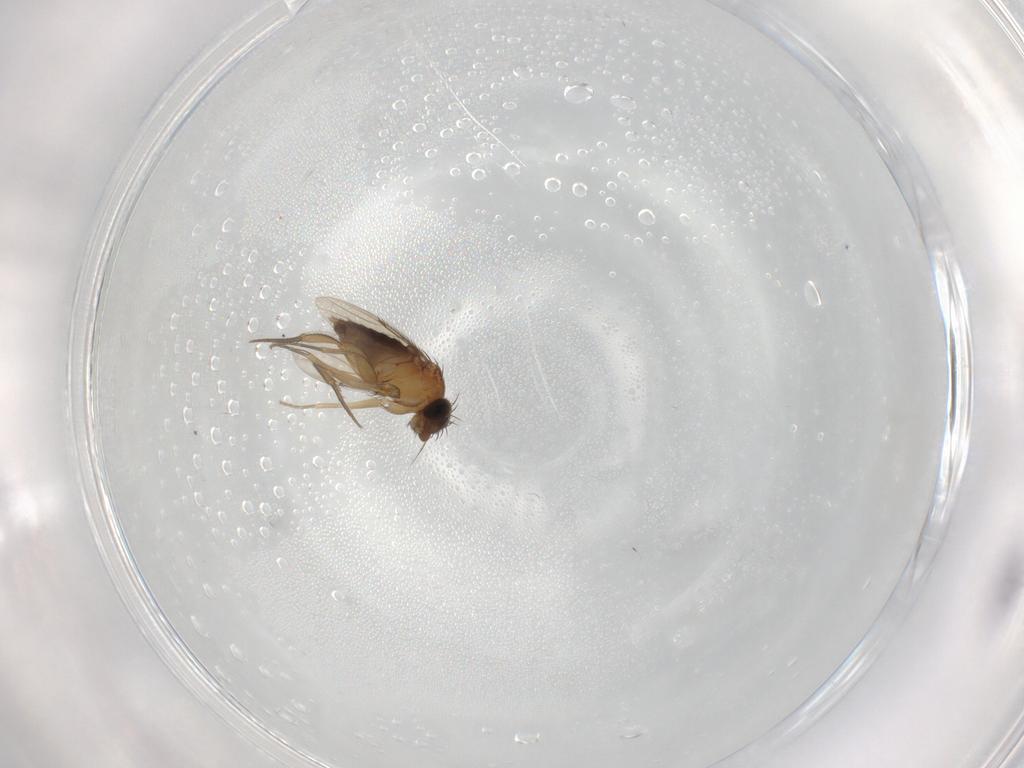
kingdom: Animalia
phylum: Arthropoda
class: Insecta
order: Diptera
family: Phoridae
